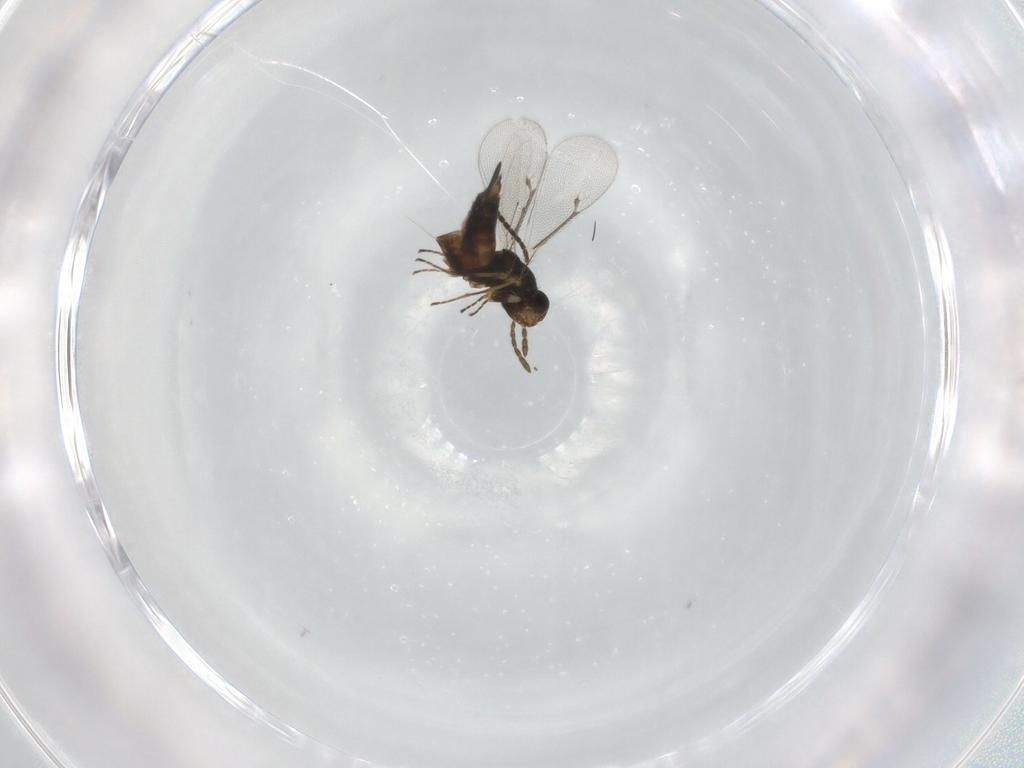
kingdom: Animalia
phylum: Arthropoda
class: Insecta
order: Hymenoptera
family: Eulophidae
